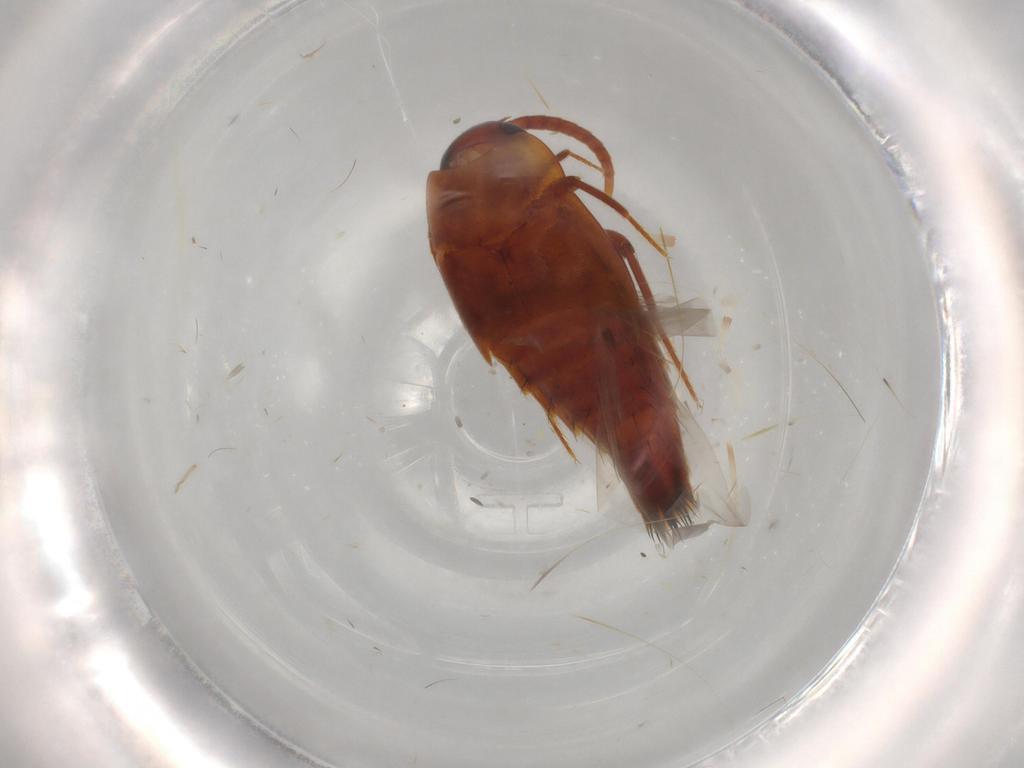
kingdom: Animalia
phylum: Arthropoda
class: Insecta
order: Coleoptera
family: Staphylinidae
